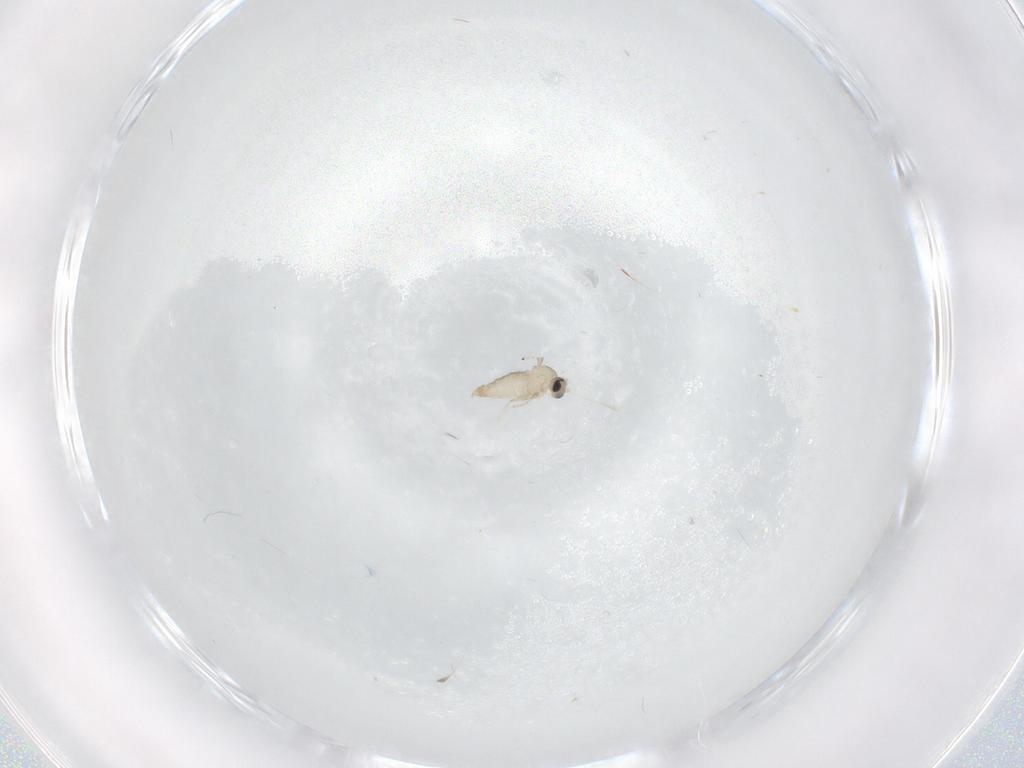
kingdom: Animalia
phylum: Arthropoda
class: Insecta
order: Diptera
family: Cecidomyiidae
